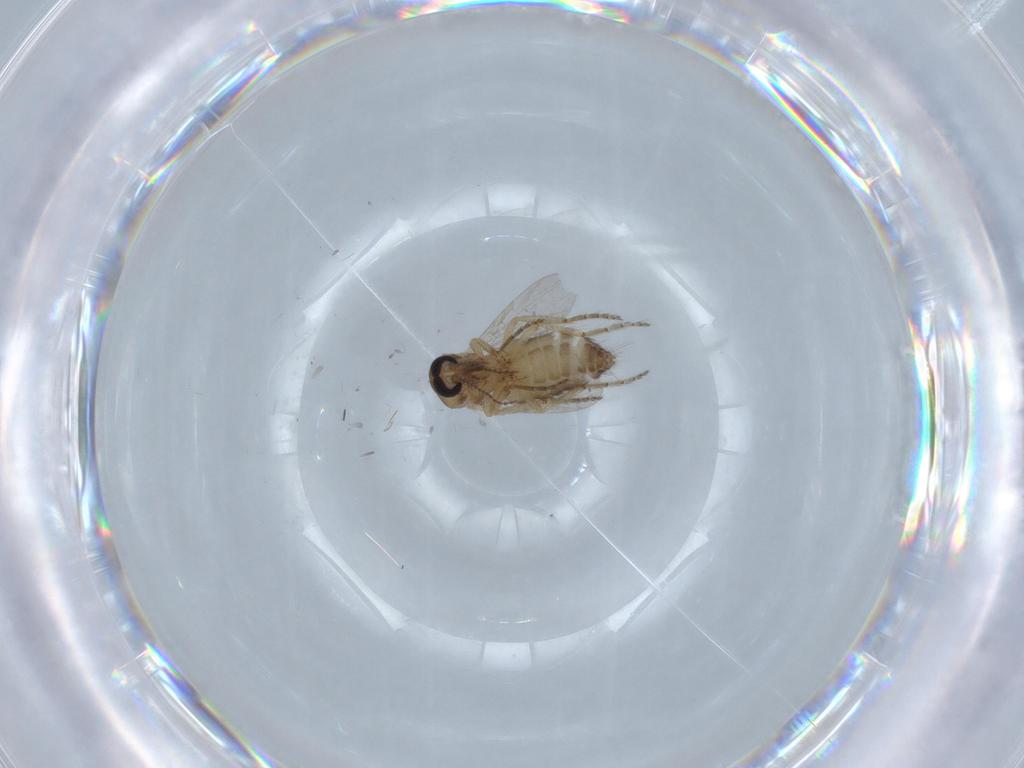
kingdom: Animalia
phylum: Arthropoda
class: Insecta
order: Diptera
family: Ceratopogonidae
